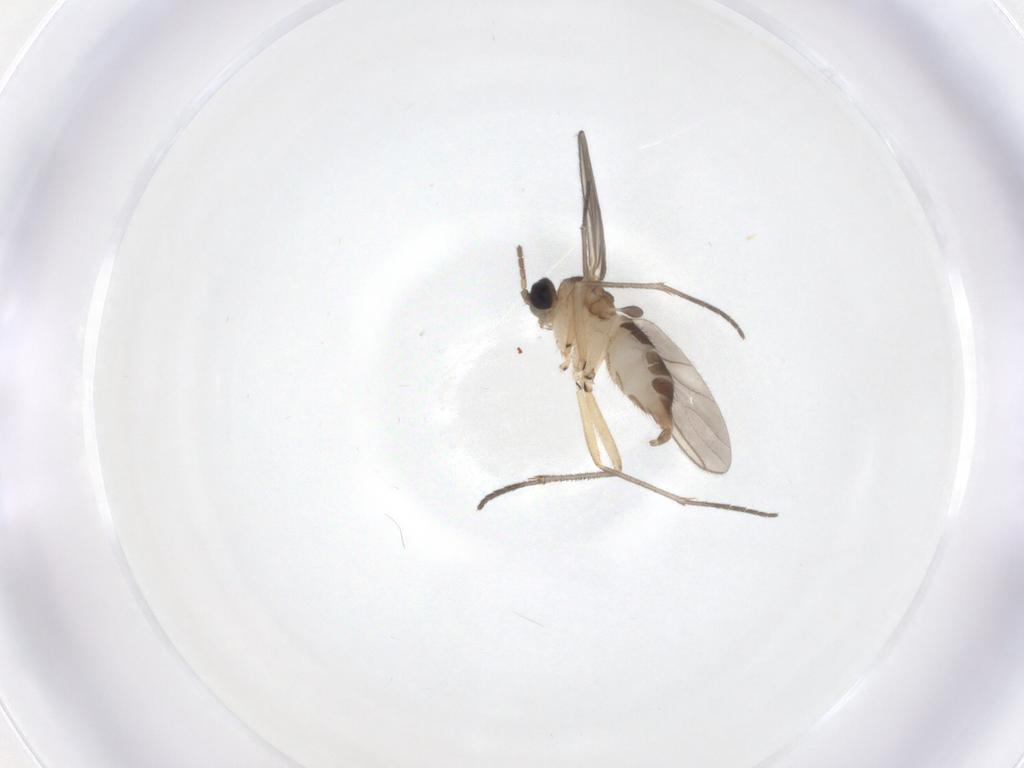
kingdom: Animalia
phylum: Arthropoda
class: Insecta
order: Diptera
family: Sciaridae
